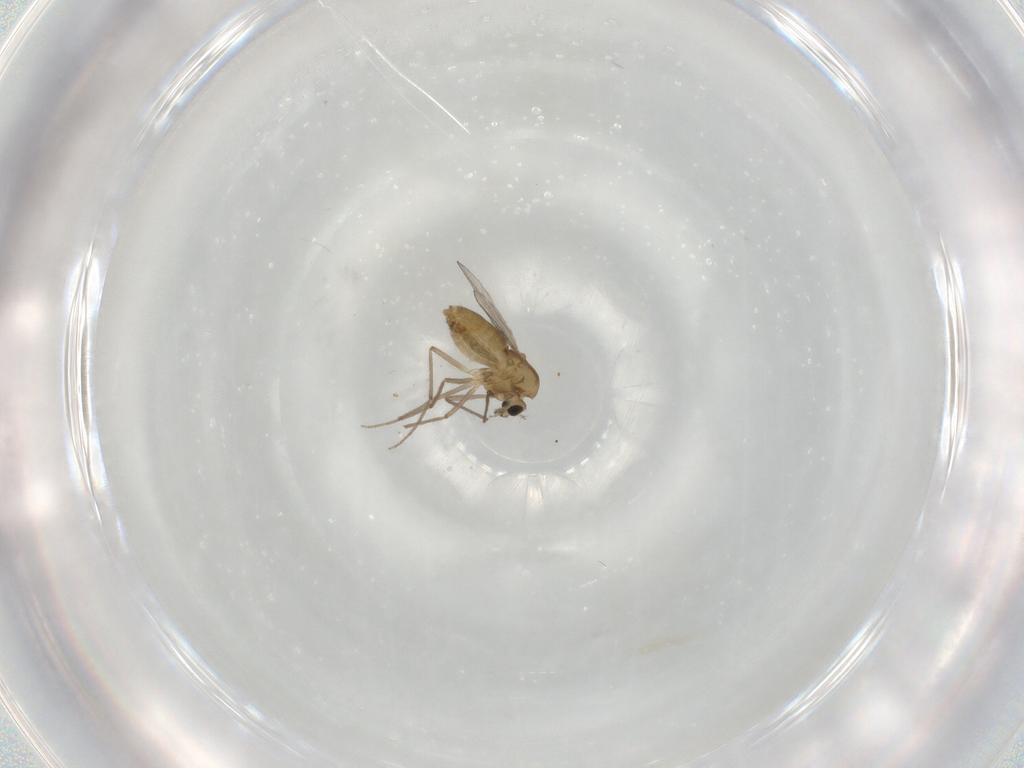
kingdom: Animalia
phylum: Arthropoda
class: Insecta
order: Diptera
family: Chironomidae
